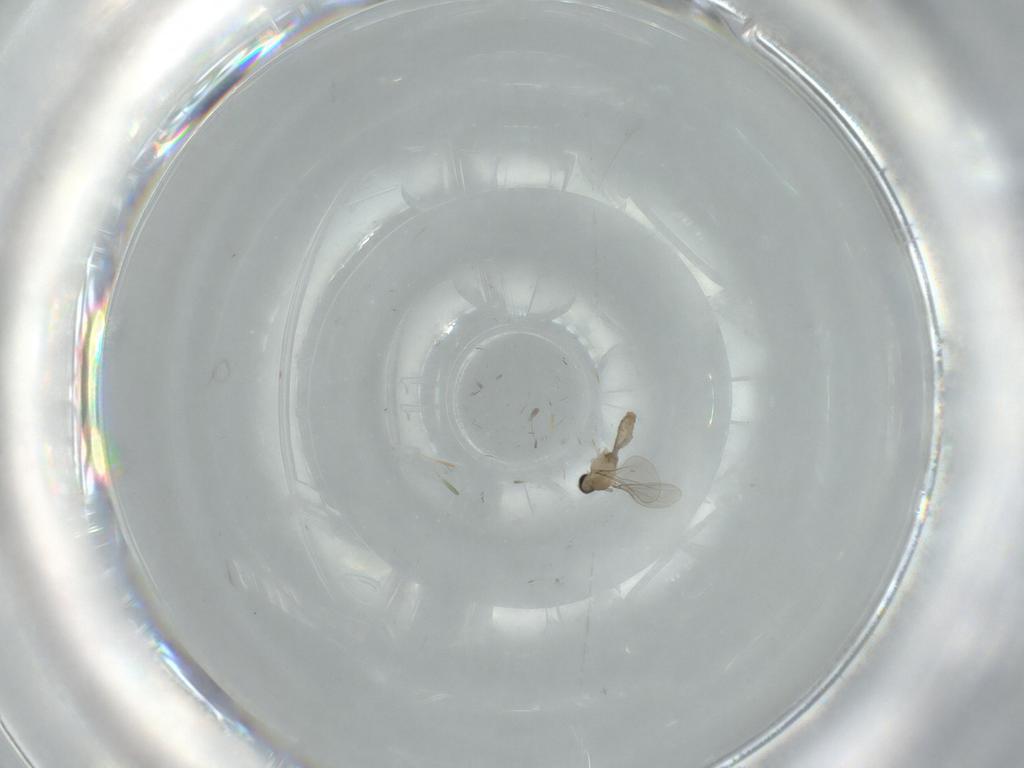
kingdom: Animalia
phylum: Arthropoda
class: Insecta
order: Diptera
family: Cecidomyiidae
